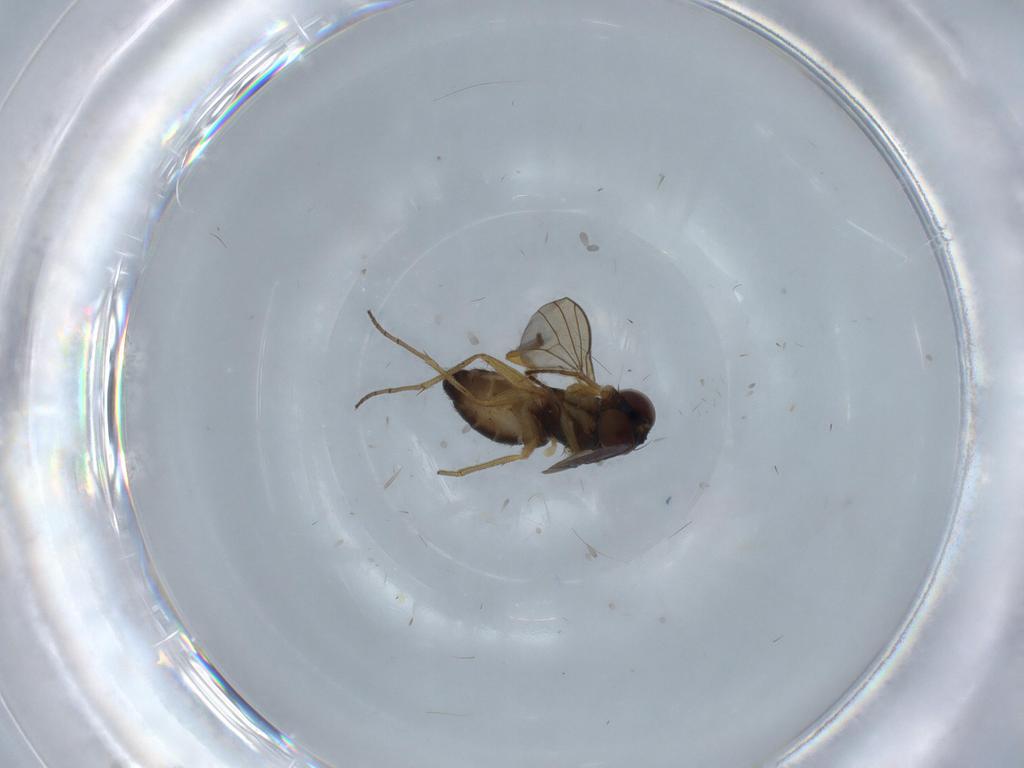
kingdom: Animalia
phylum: Arthropoda
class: Insecta
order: Diptera
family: Dolichopodidae
